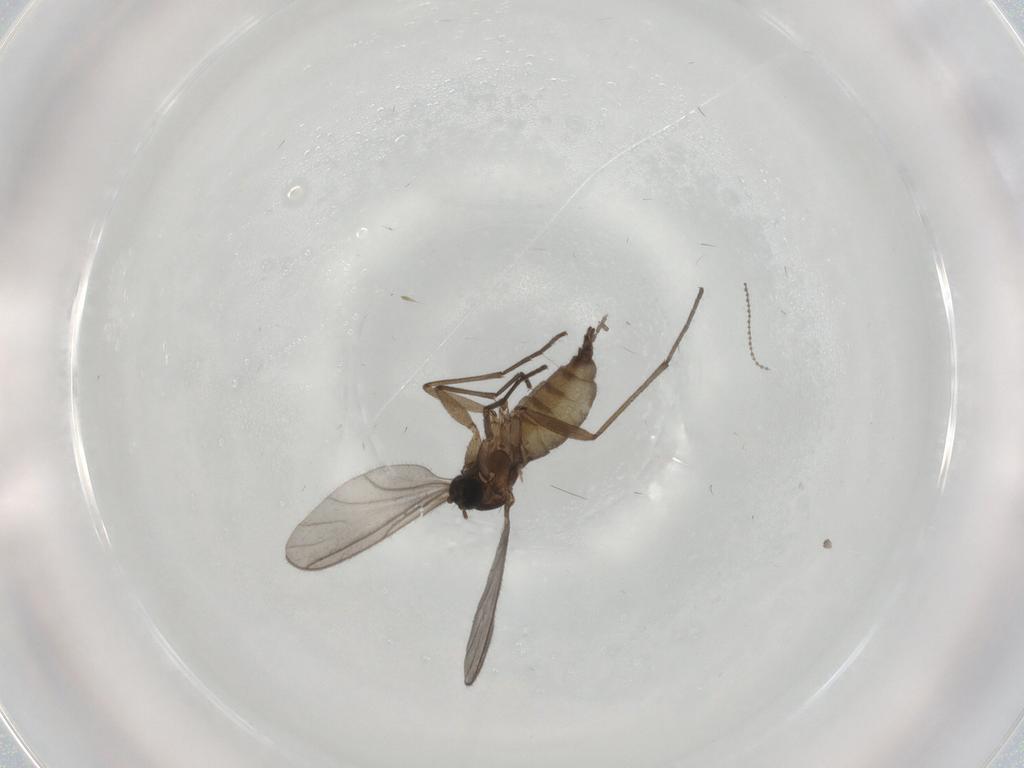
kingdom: Animalia
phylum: Arthropoda
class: Insecta
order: Diptera
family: Sciaridae
